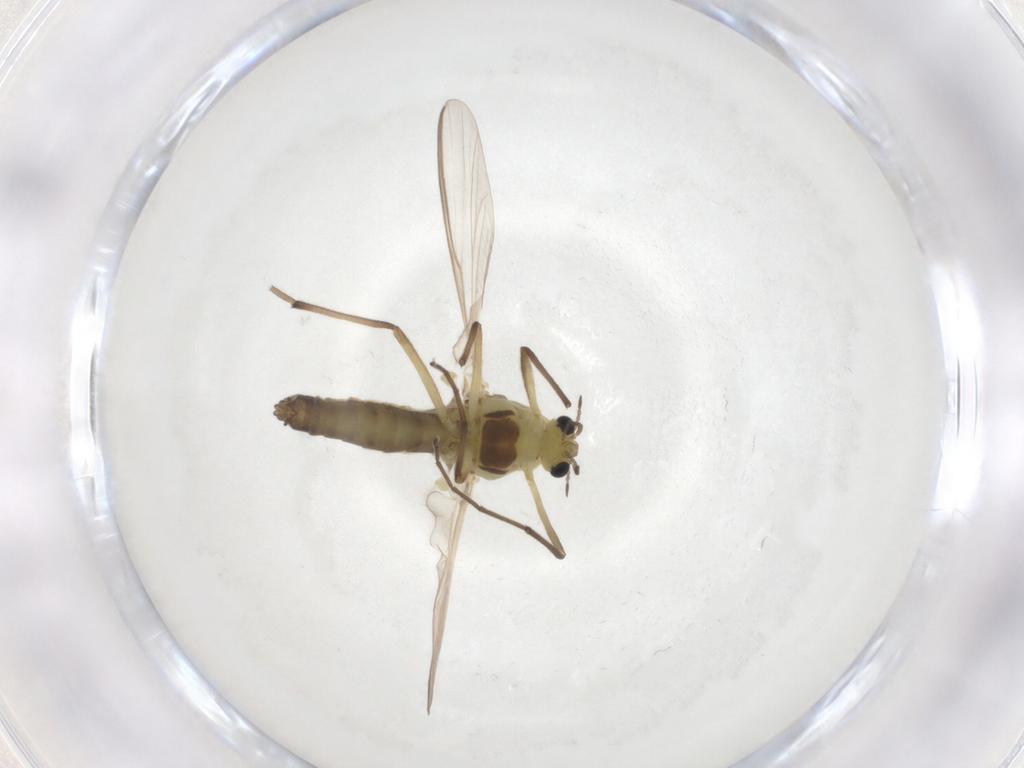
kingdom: Animalia
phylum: Arthropoda
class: Insecta
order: Diptera
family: Chironomidae
